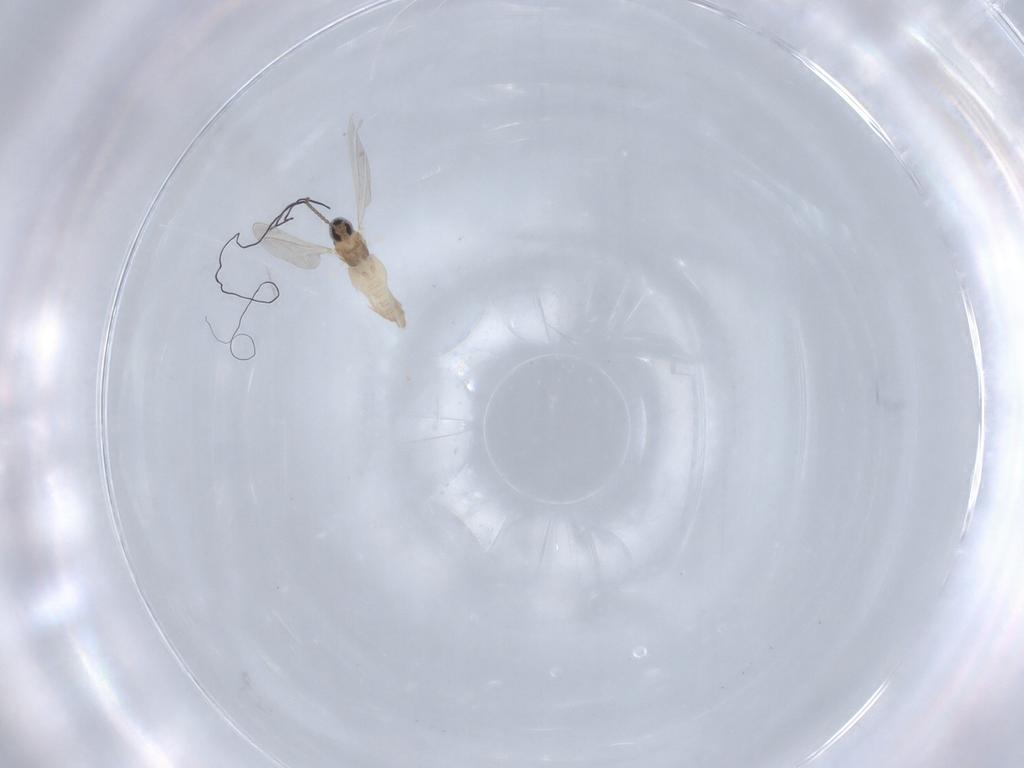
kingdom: Animalia
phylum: Arthropoda
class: Insecta
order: Diptera
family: Cecidomyiidae
